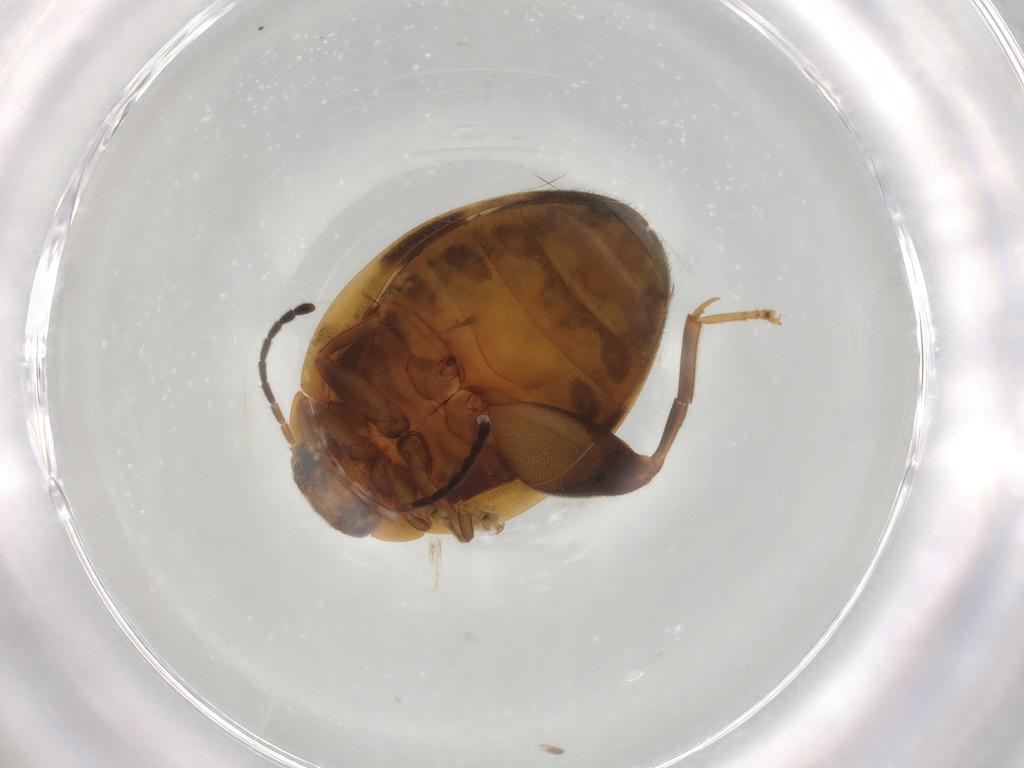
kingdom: Animalia
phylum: Arthropoda
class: Insecta
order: Coleoptera
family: Scirtidae
